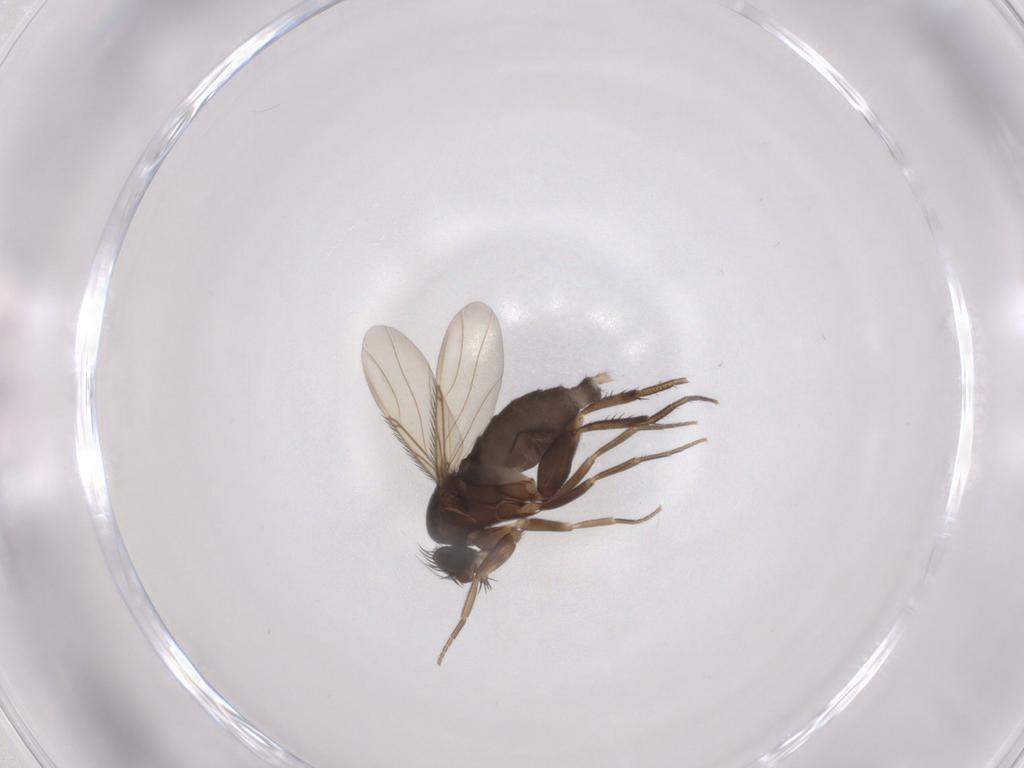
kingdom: Animalia
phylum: Arthropoda
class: Insecta
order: Diptera
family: Phoridae
